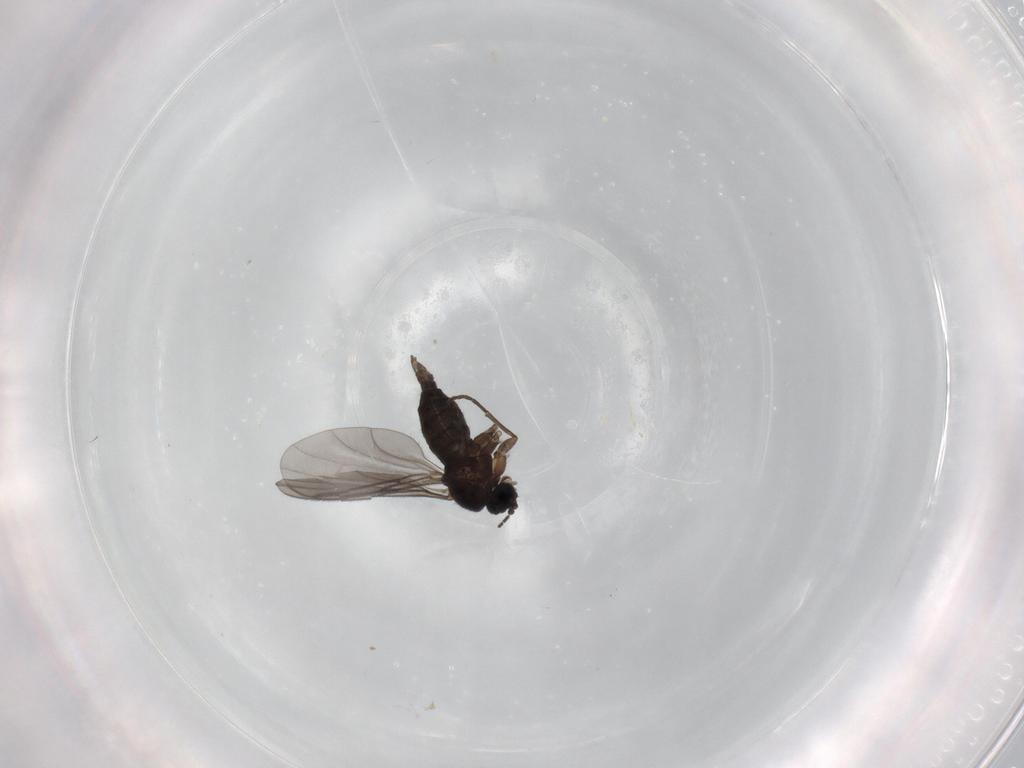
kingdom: Animalia
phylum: Arthropoda
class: Insecta
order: Diptera
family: Sciaridae
